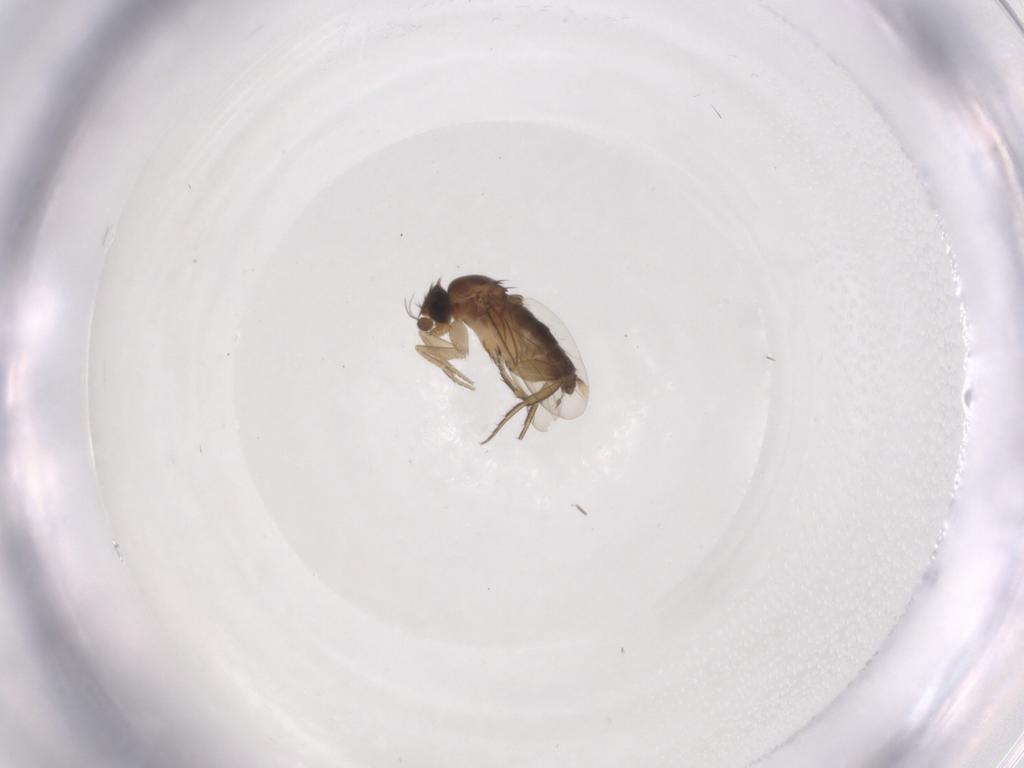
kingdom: Animalia
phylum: Arthropoda
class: Insecta
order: Diptera
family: Phoridae
